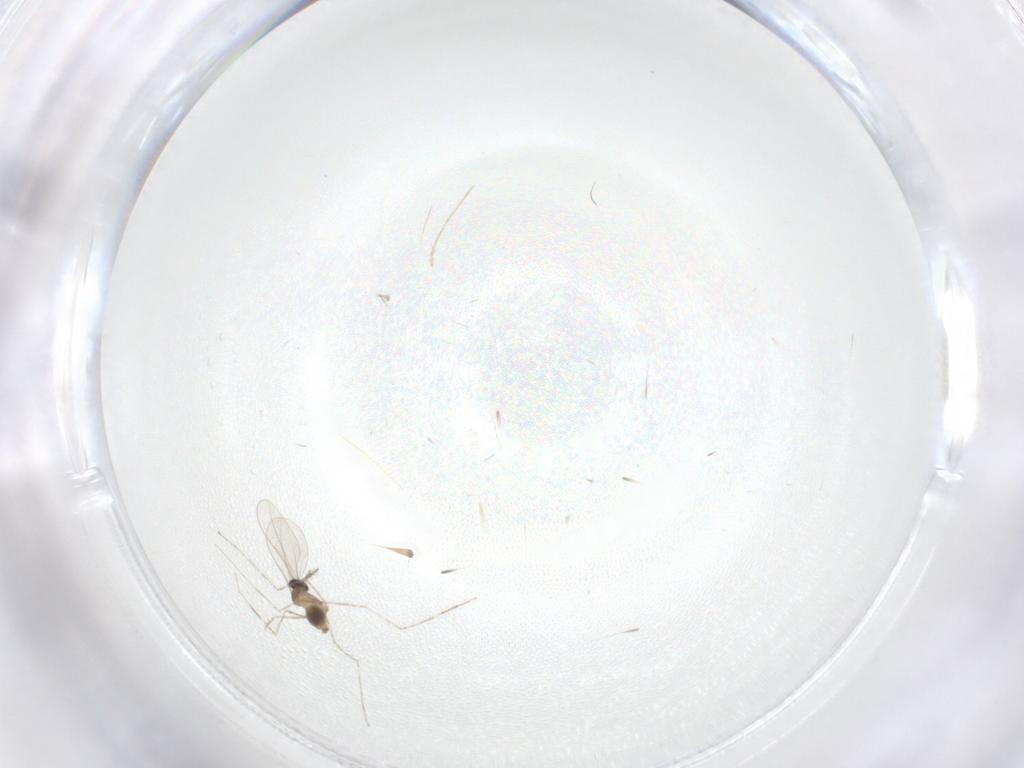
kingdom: Animalia
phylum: Arthropoda
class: Insecta
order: Diptera
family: Cecidomyiidae
